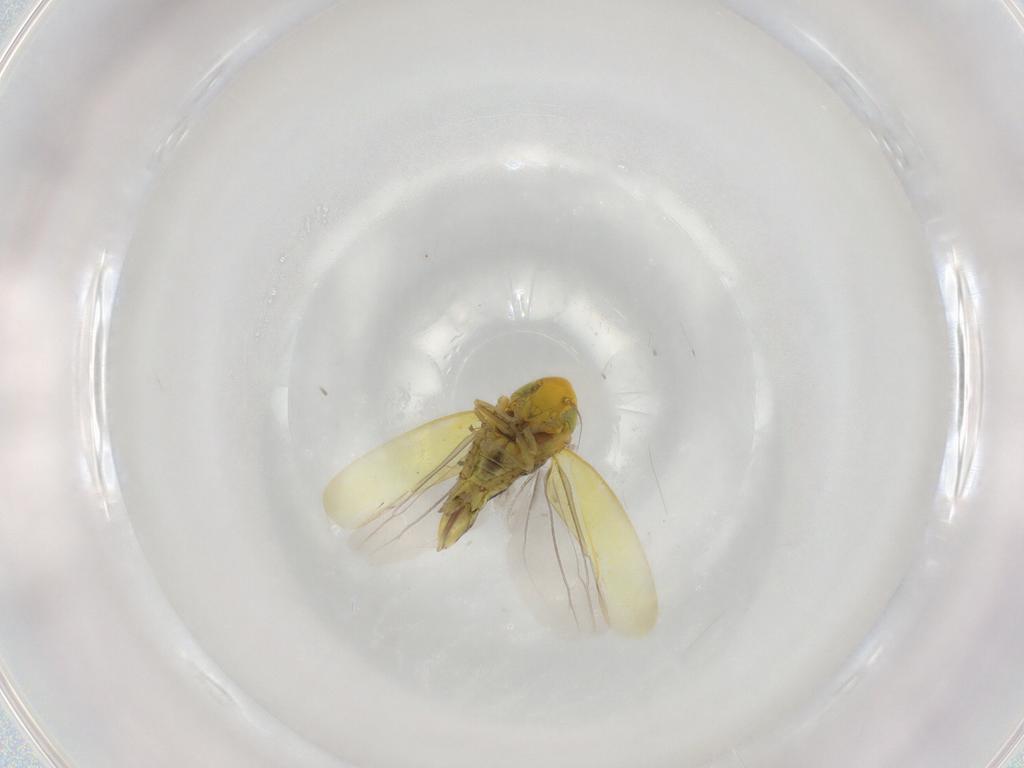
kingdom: Animalia
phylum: Arthropoda
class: Insecta
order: Hemiptera
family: Cicadellidae
